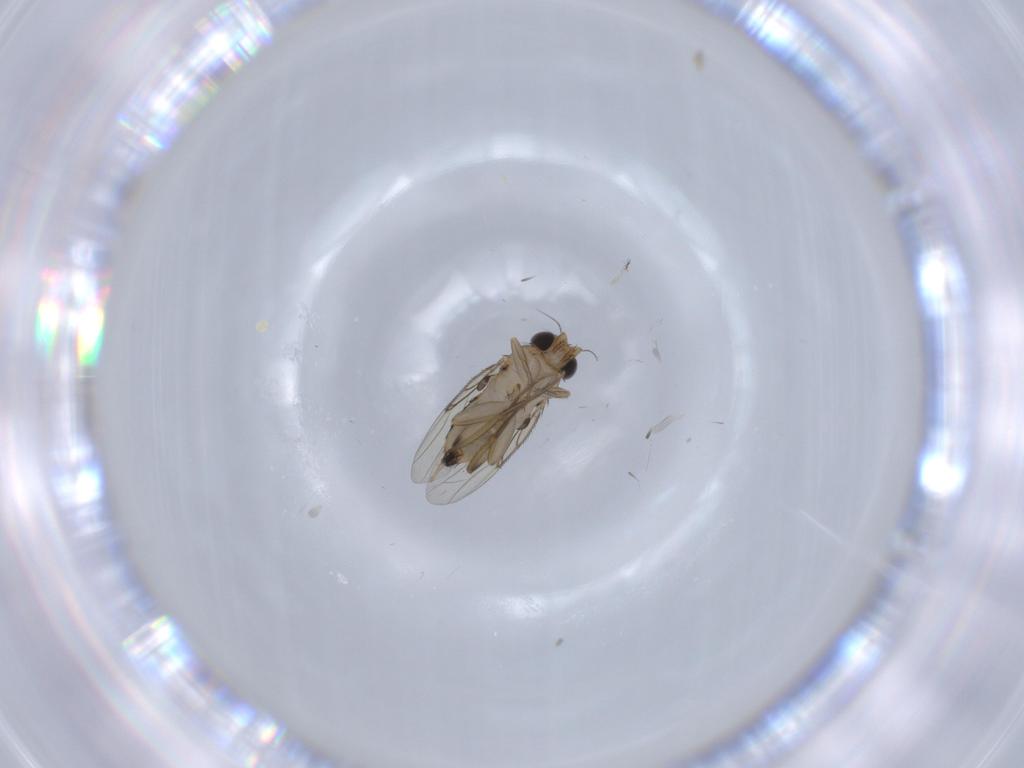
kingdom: Animalia
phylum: Arthropoda
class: Insecta
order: Diptera
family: Phoridae
